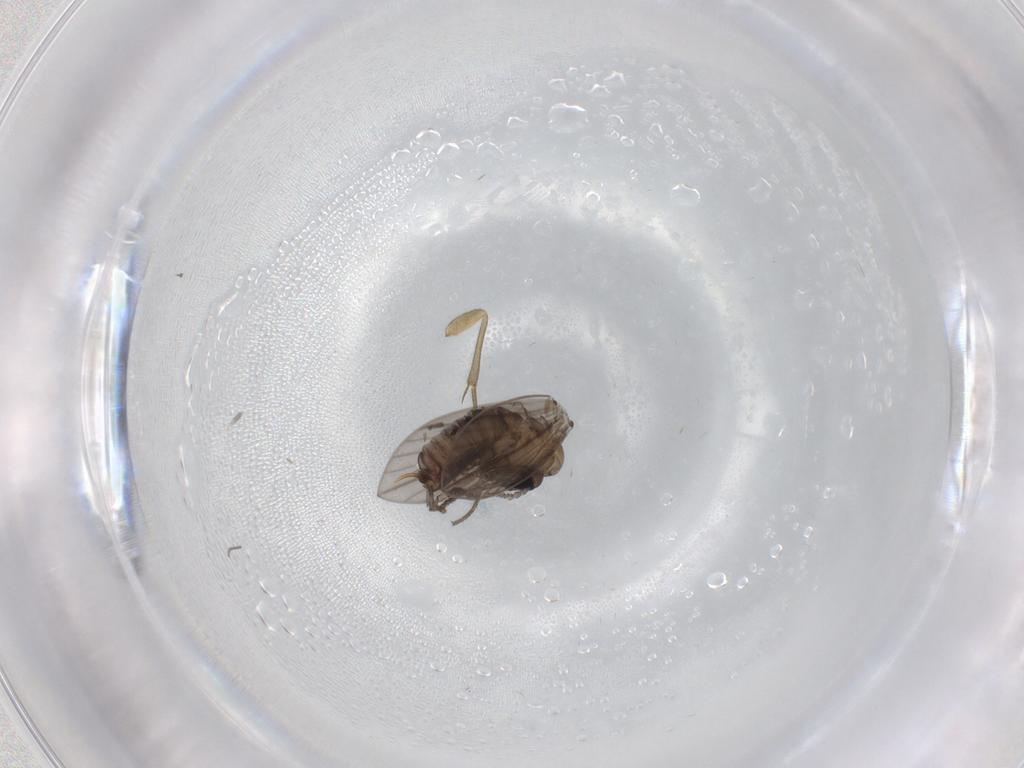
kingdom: Animalia
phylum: Arthropoda
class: Insecta
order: Diptera
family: Psychodidae
